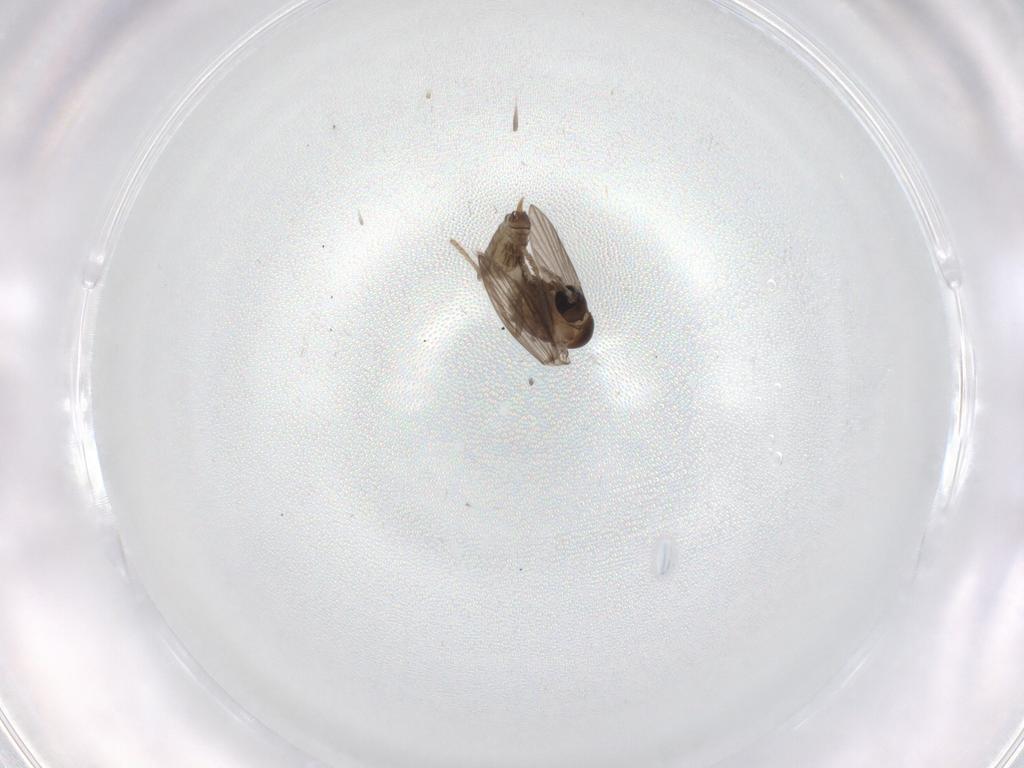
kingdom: Animalia
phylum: Arthropoda
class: Insecta
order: Diptera
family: Psychodidae
